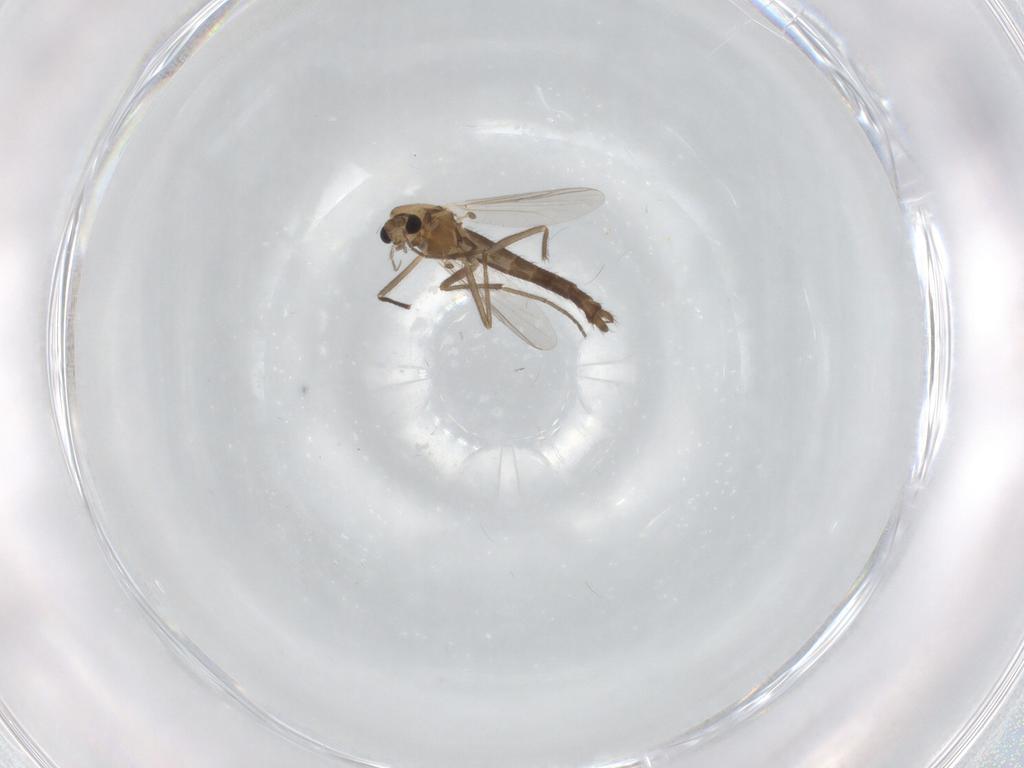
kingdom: Animalia
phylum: Arthropoda
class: Insecta
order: Diptera
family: Chironomidae
